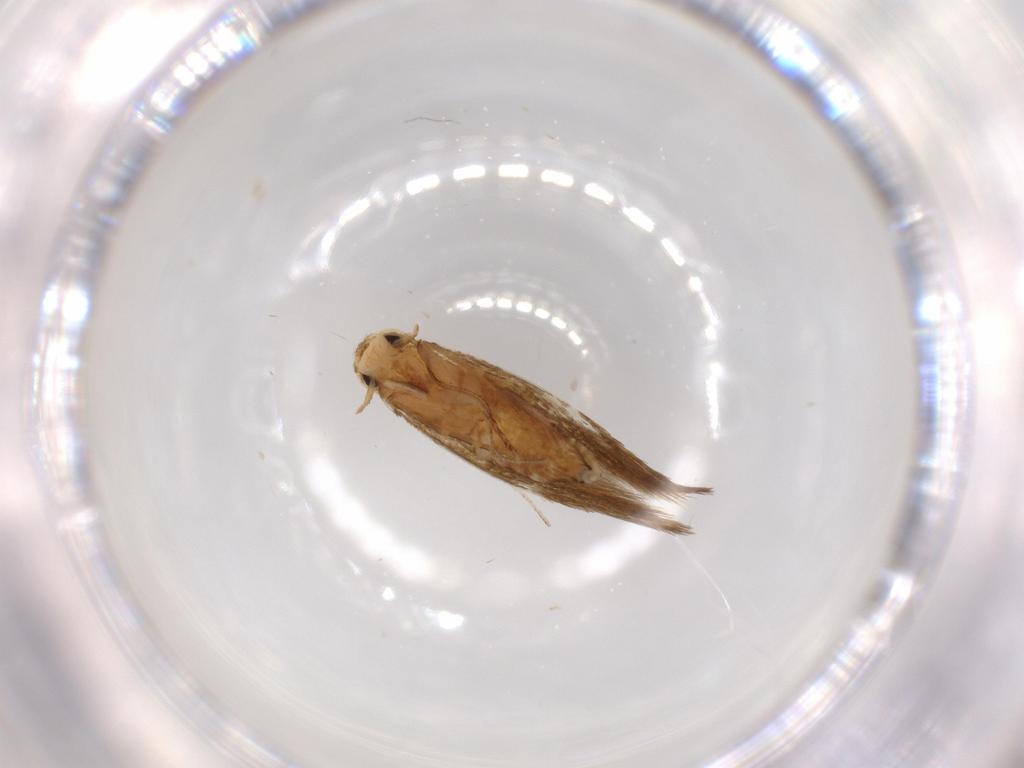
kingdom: Animalia
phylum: Arthropoda
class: Insecta
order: Lepidoptera
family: Tineidae
